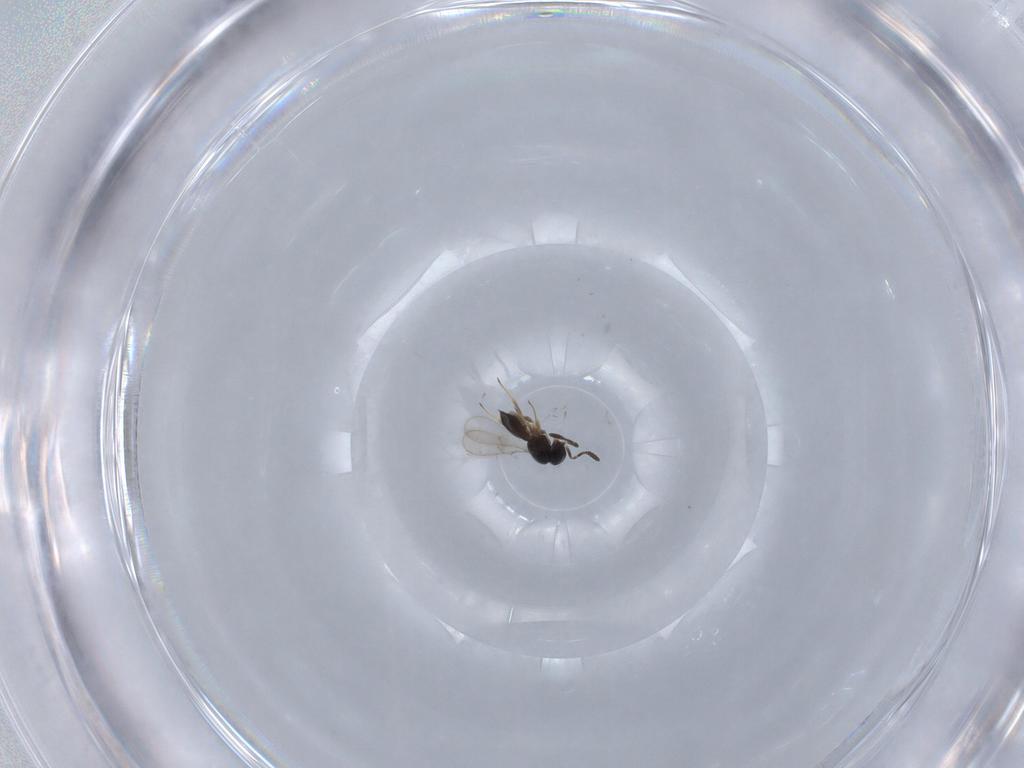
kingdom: Animalia
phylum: Arthropoda
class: Insecta
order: Hymenoptera
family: Scelionidae
